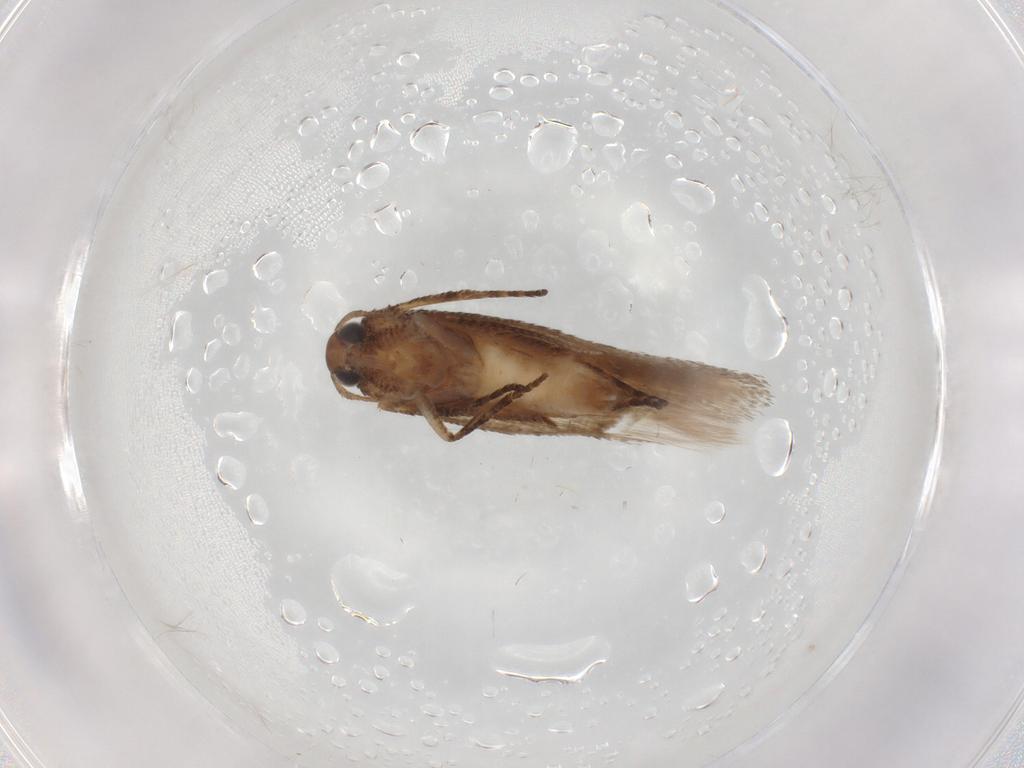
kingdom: Animalia
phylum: Arthropoda
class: Insecta
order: Lepidoptera
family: Gelechiidae
